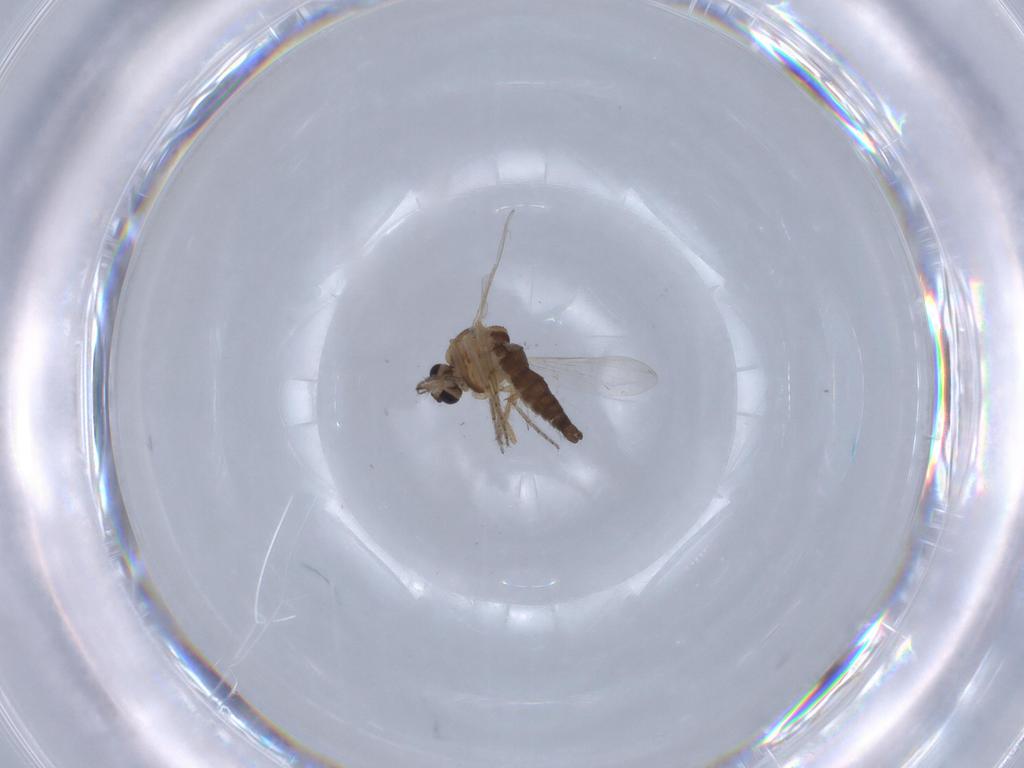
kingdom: Animalia
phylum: Arthropoda
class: Insecta
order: Diptera
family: Ceratopogonidae
